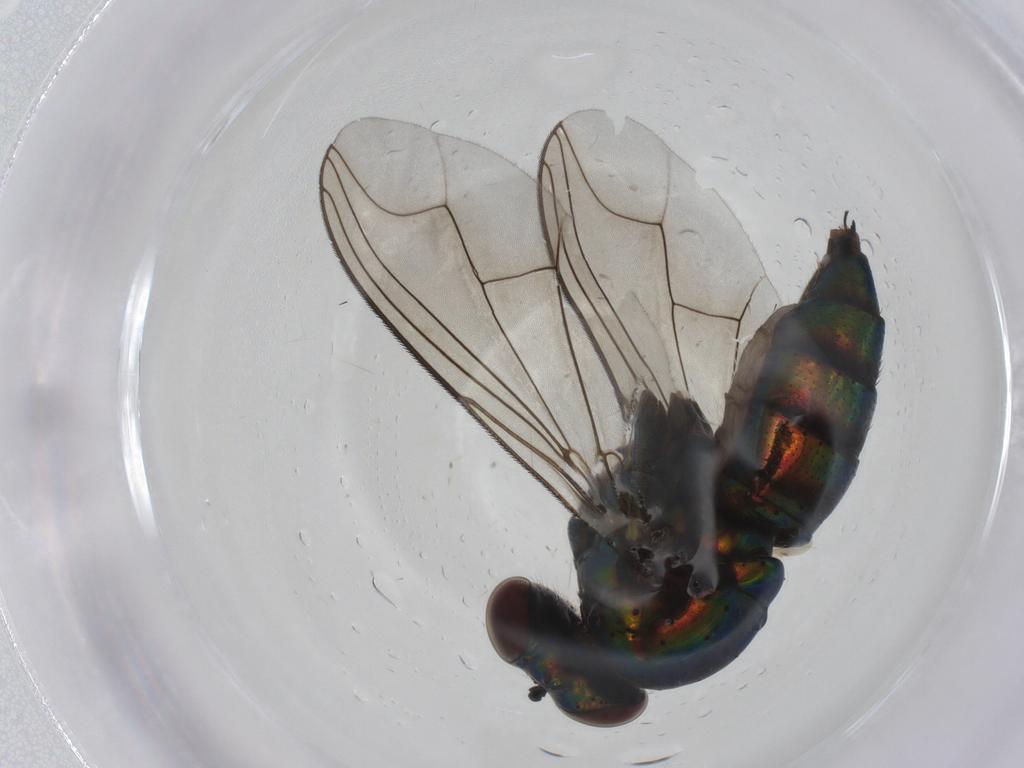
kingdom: Animalia
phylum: Arthropoda
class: Insecta
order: Diptera
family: Dolichopodidae
